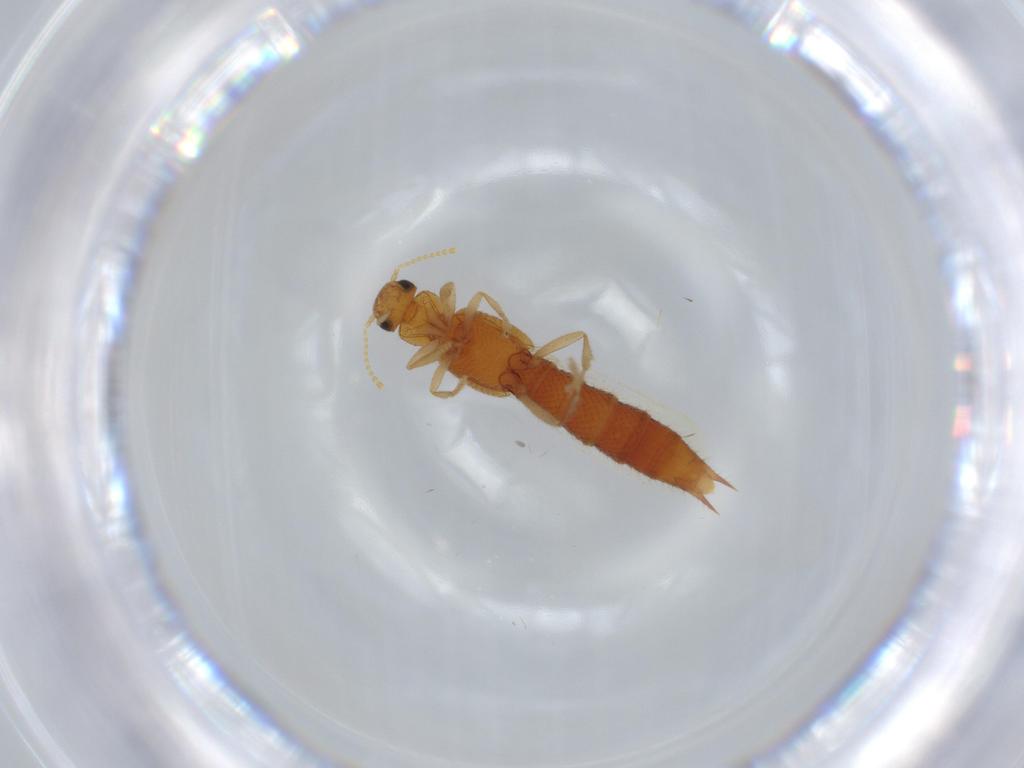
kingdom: Animalia
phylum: Arthropoda
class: Insecta
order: Coleoptera
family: Staphylinidae
